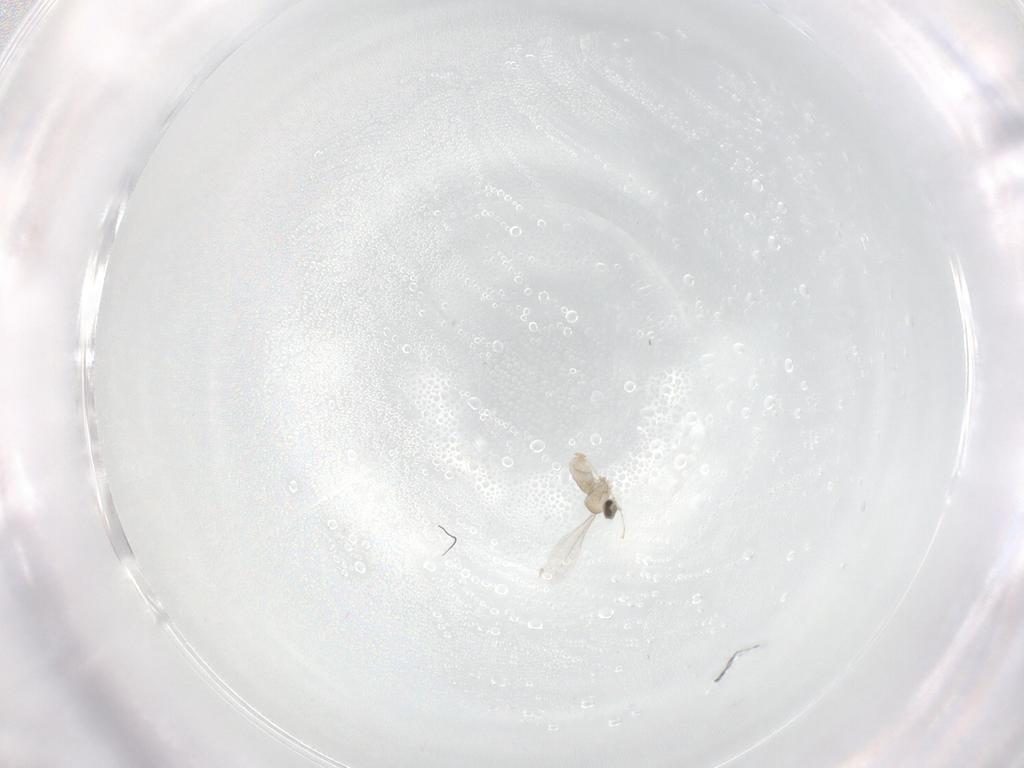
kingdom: Animalia
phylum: Arthropoda
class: Insecta
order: Diptera
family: Cecidomyiidae
